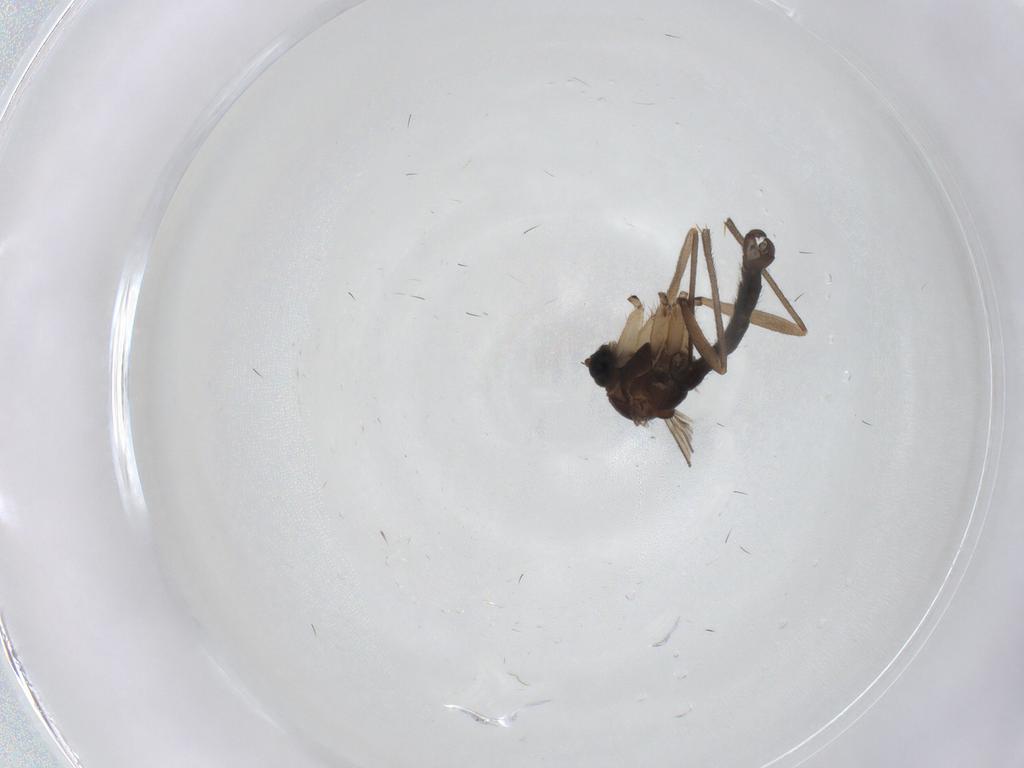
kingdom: Animalia
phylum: Arthropoda
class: Insecta
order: Diptera
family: Sciaridae
